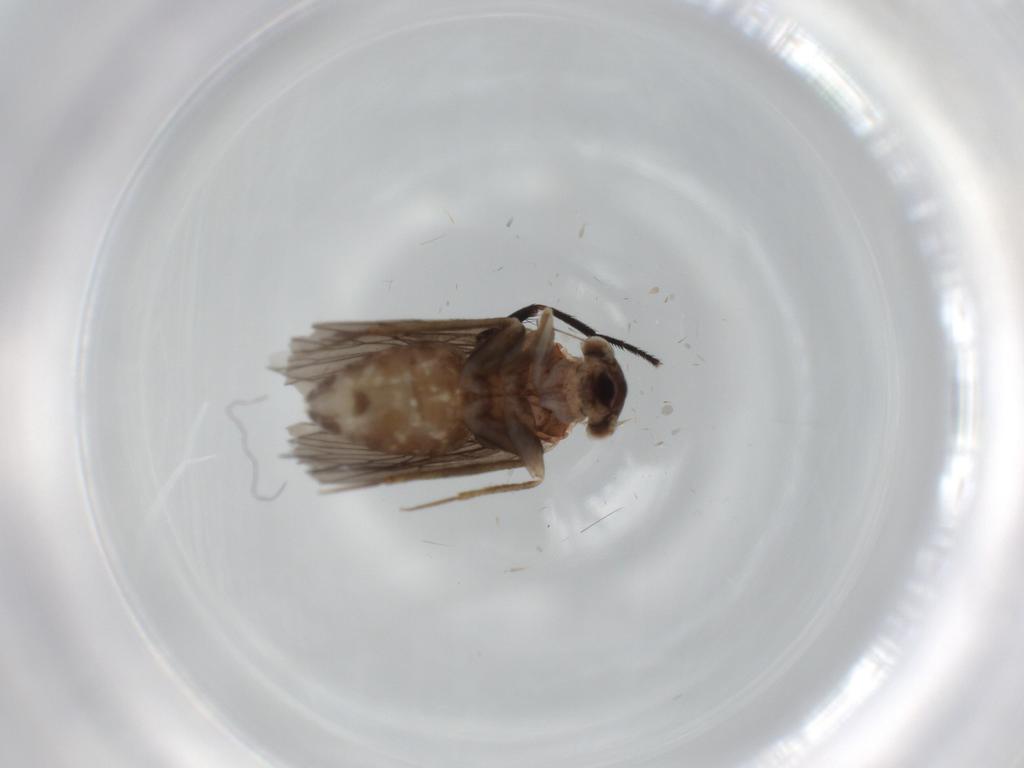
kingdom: Animalia
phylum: Arthropoda
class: Insecta
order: Psocodea
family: Lepidopsocidae
